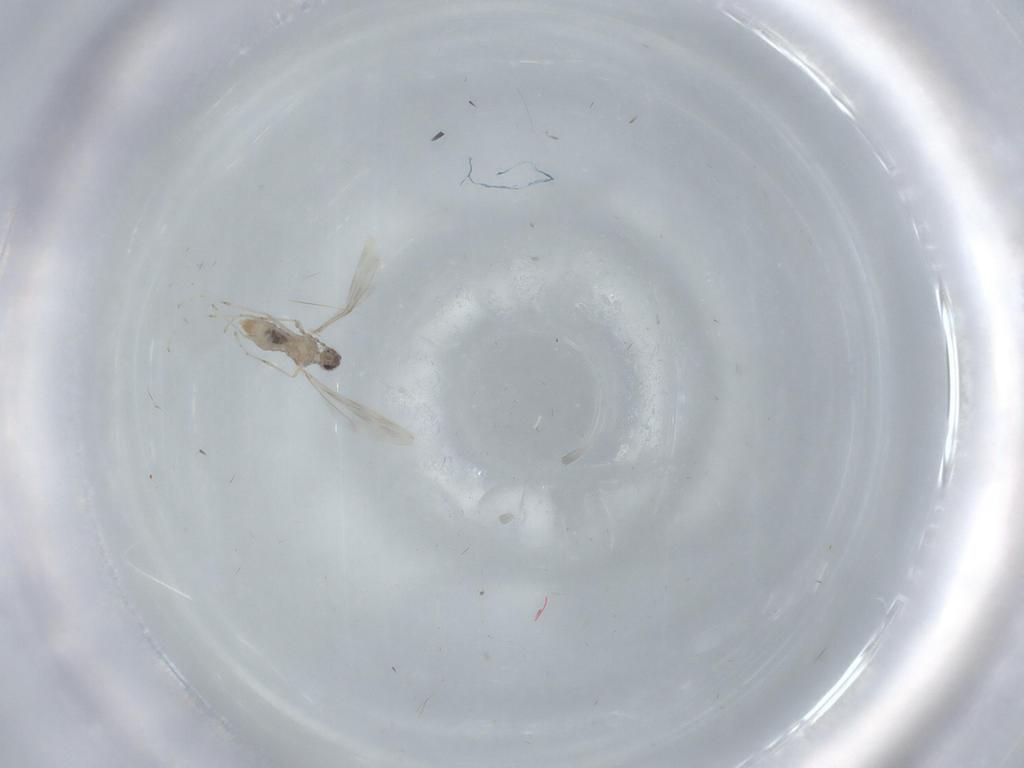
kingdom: Animalia
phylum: Arthropoda
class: Insecta
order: Diptera
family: Cecidomyiidae
